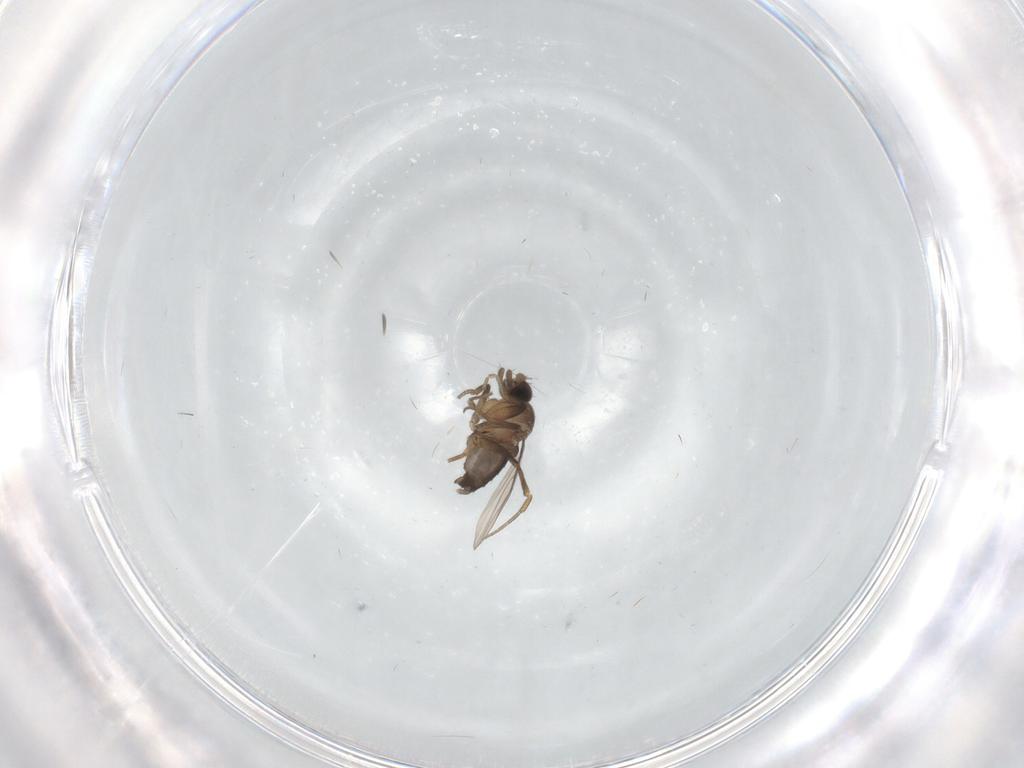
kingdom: Animalia
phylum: Arthropoda
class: Insecta
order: Diptera
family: Phoridae
